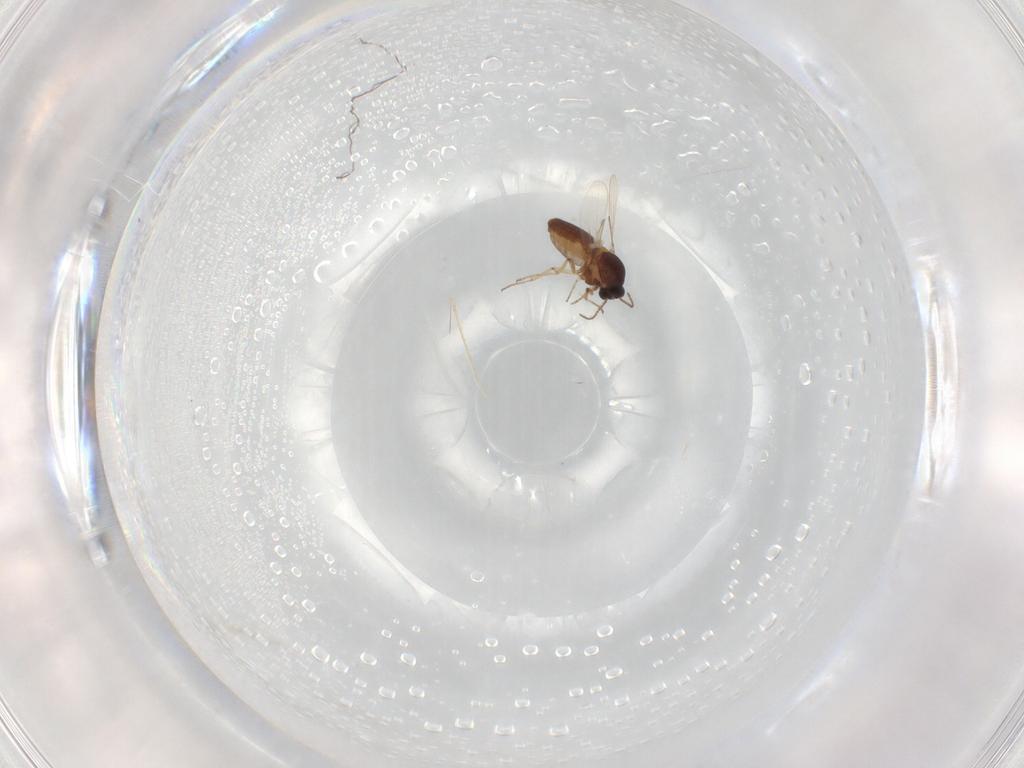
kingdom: Animalia
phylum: Arthropoda
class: Insecta
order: Diptera
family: Ceratopogonidae
